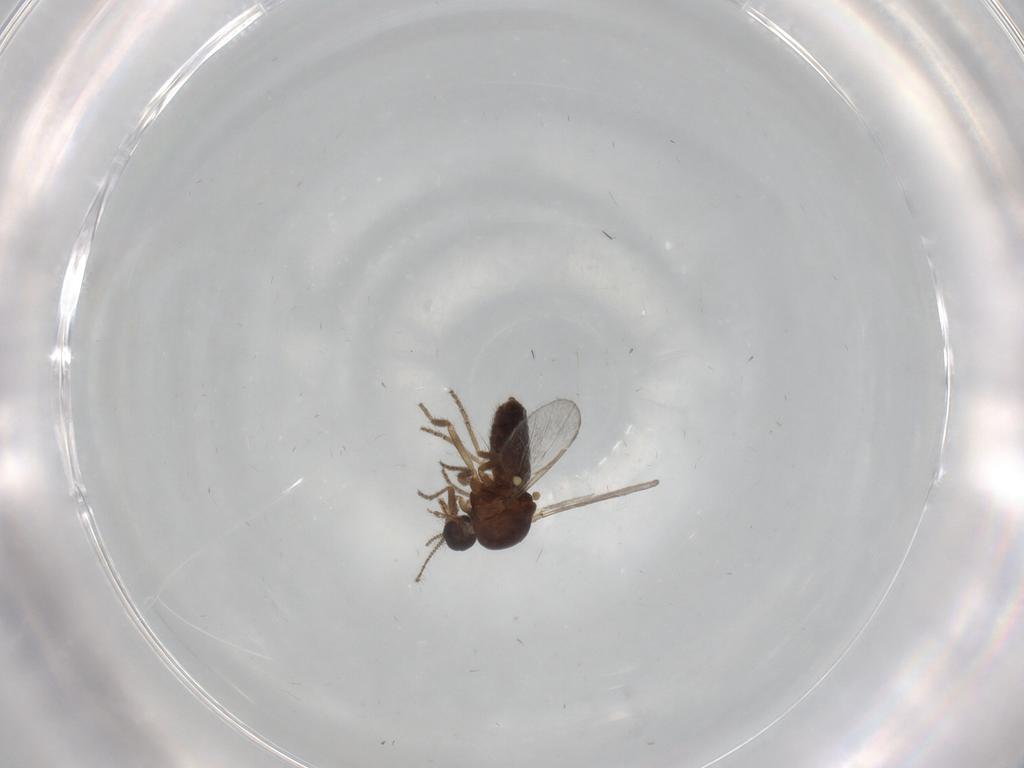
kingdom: Animalia
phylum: Arthropoda
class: Insecta
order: Diptera
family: Ceratopogonidae
